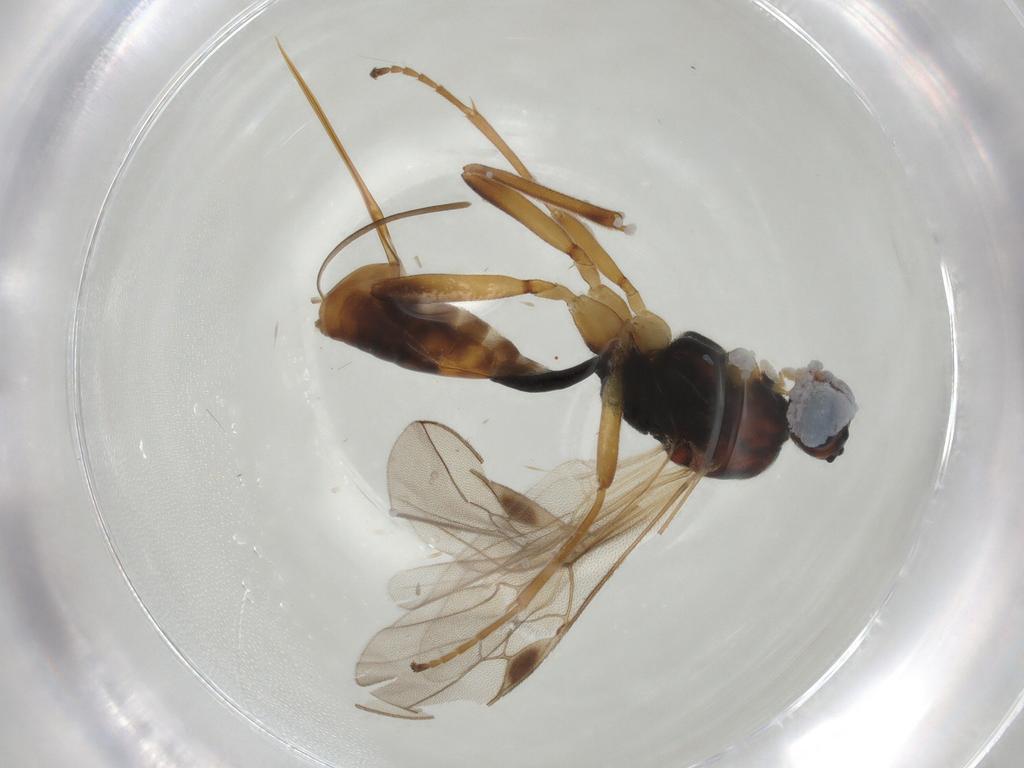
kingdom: Animalia
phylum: Arthropoda
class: Insecta
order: Hymenoptera
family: Braconidae
